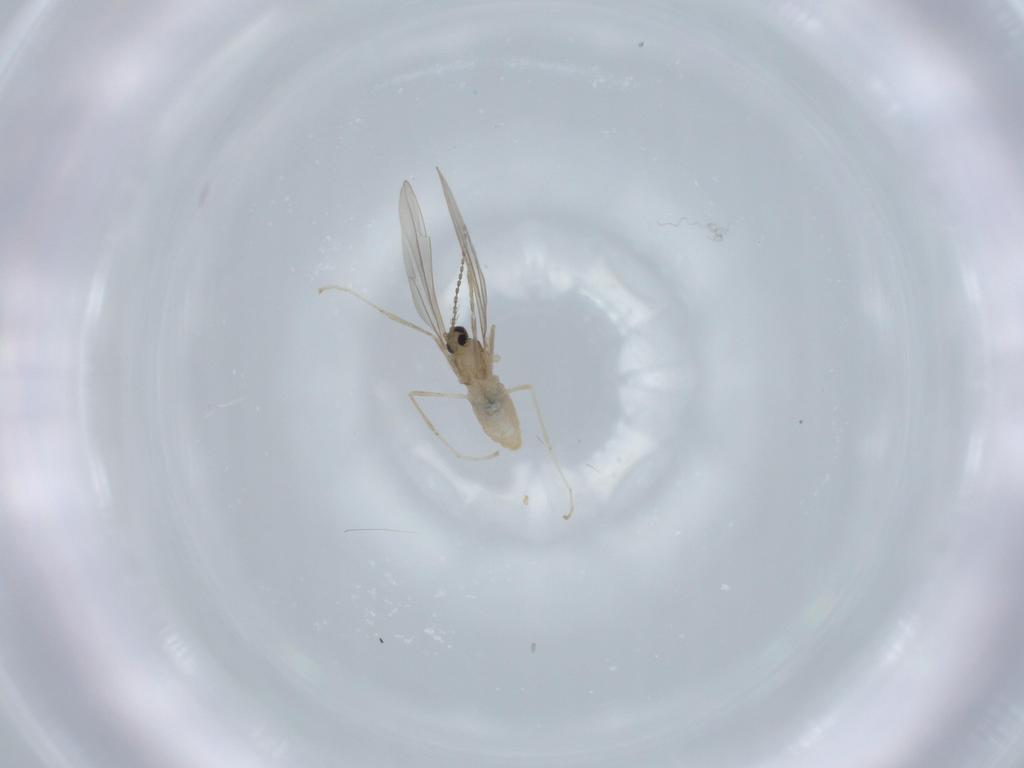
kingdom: Animalia
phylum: Arthropoda
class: Insecta
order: Diptera
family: Cecidomyiidae
